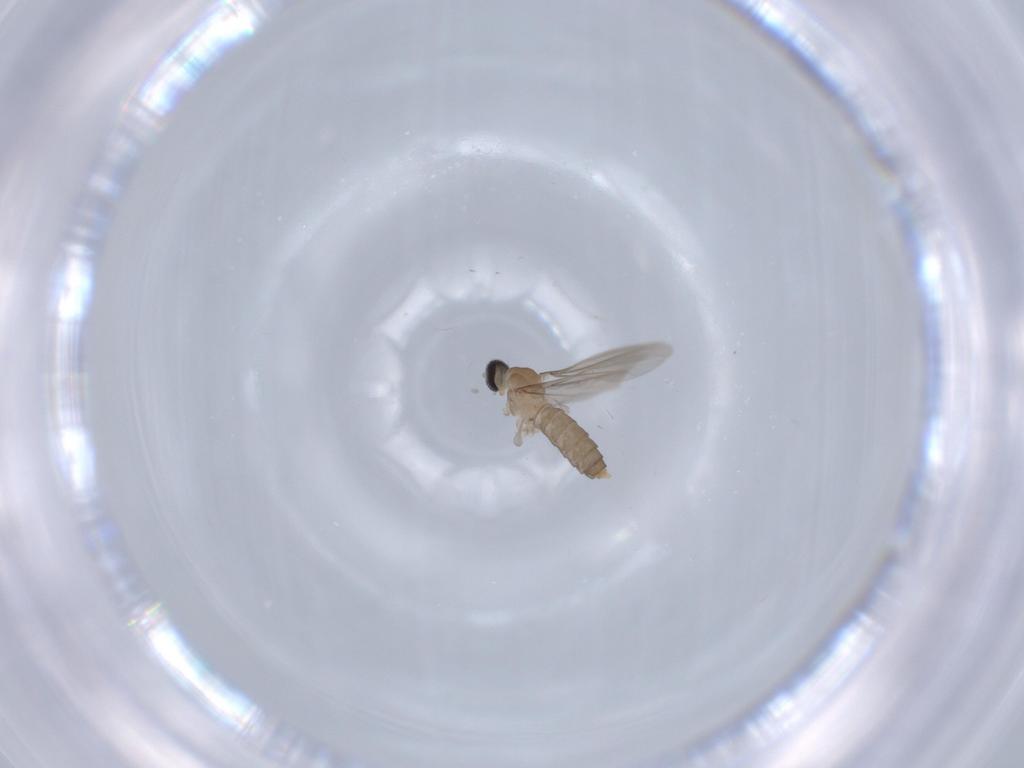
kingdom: Animalia
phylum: Arthropoda
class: Insecta
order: Diptera
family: Cecidomyiidae
